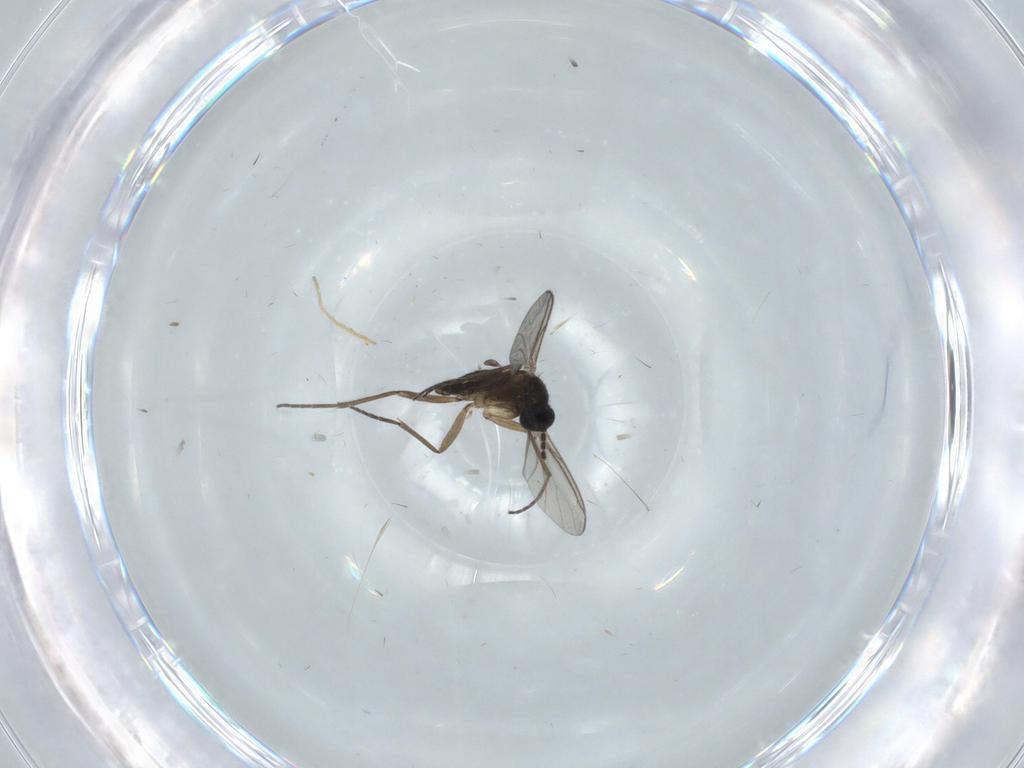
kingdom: Animalia
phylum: Arthropoda
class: Insecta
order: Diptera
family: Sciaridae
